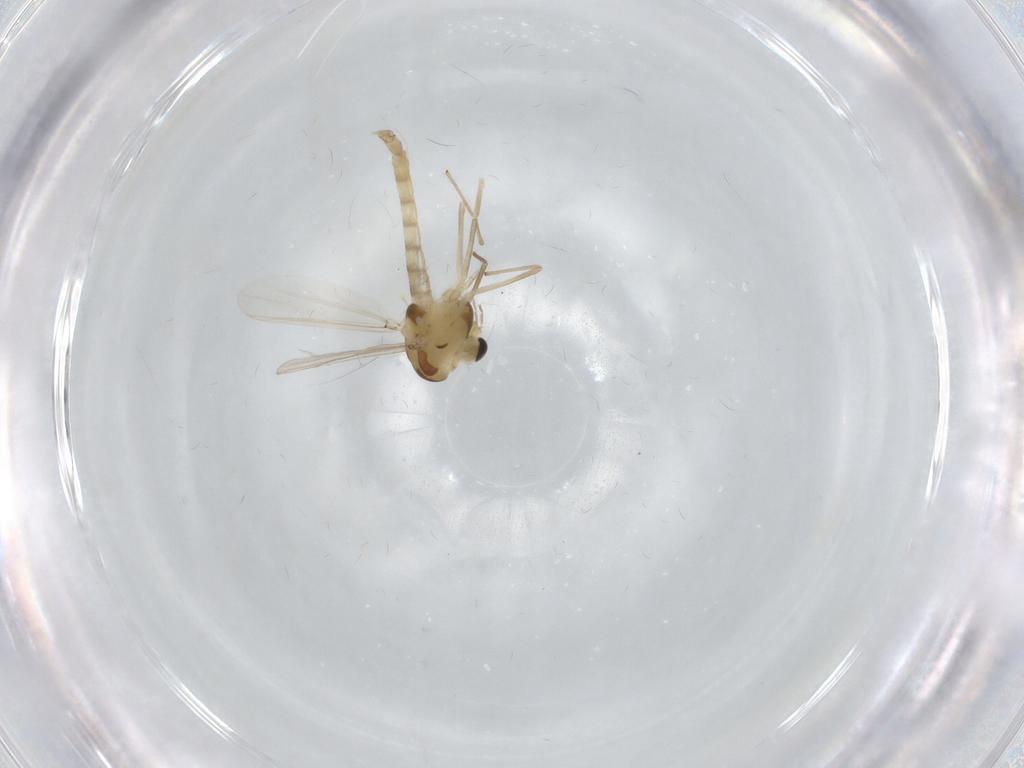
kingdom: Animalia
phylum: Arthropoda
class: Insecta
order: Diptera
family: Chironomidae
